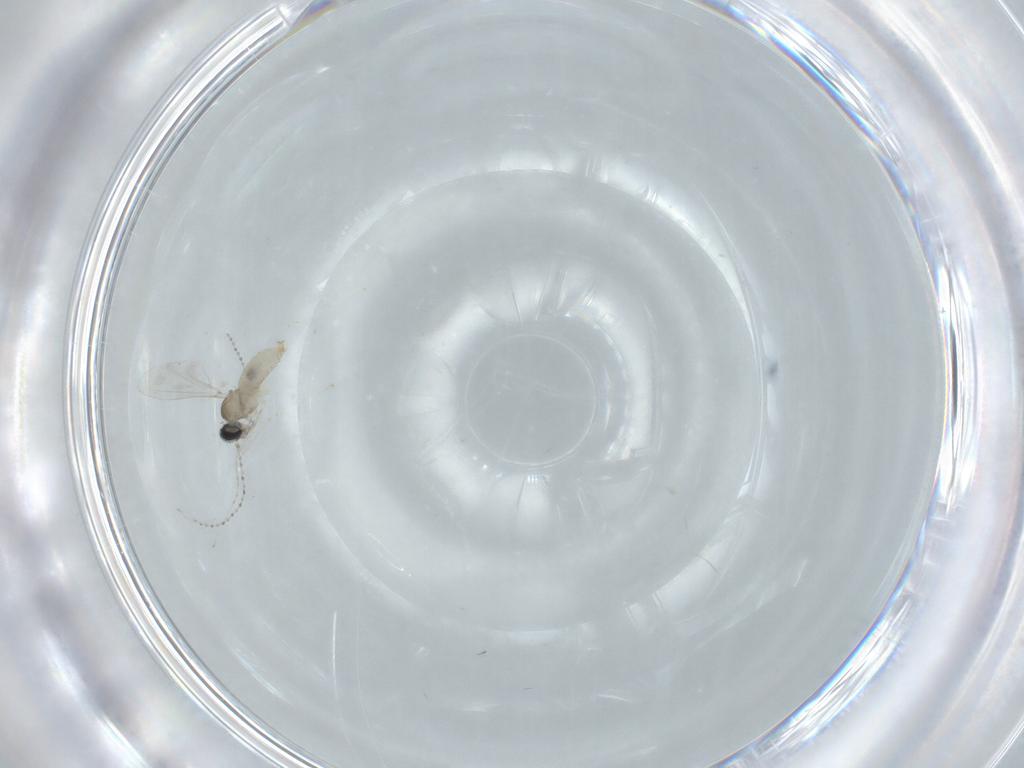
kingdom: Animalia
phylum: Arthropoda
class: Insecta
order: Diptera
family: Cecidomyiidae
